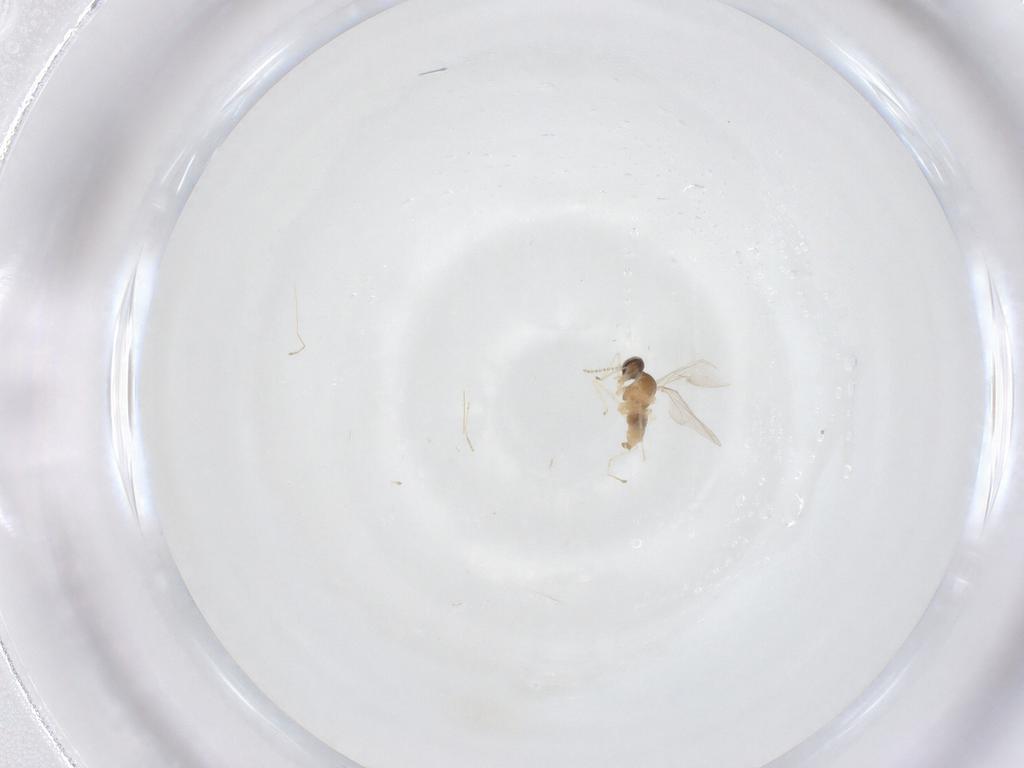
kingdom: Animalia
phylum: Arthropoda
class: Insecta
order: Diptera
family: Cecidomyiidae
